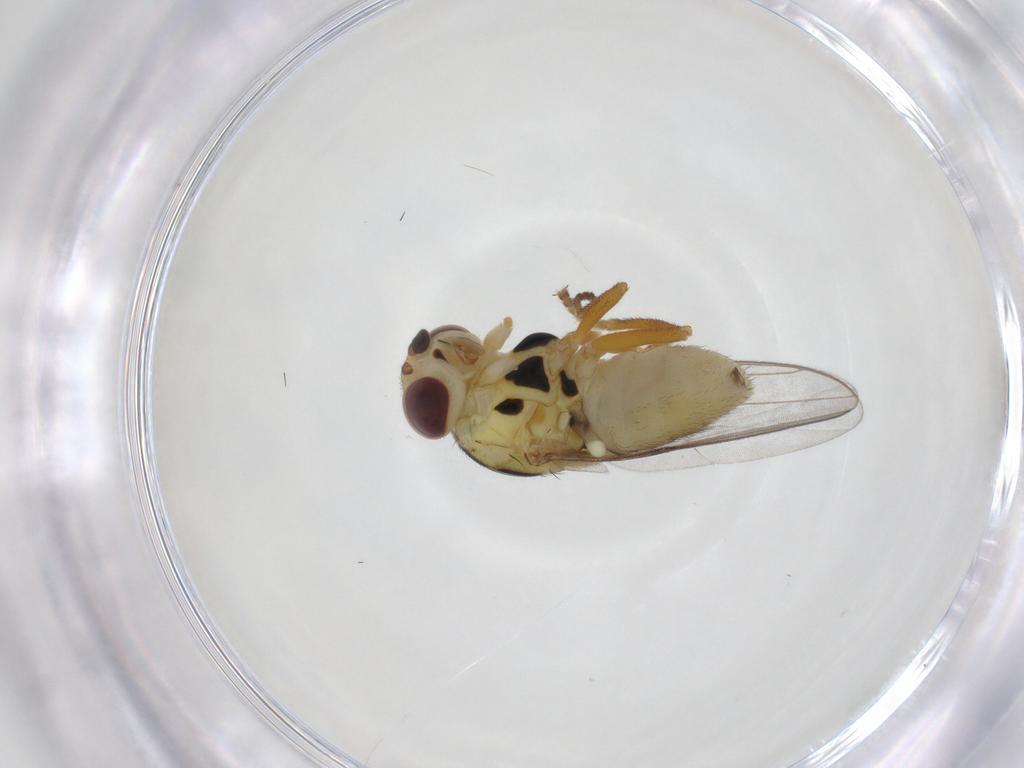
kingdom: Animalia
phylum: Arthropoda
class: Insecta
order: Diptera
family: Chloropidae
